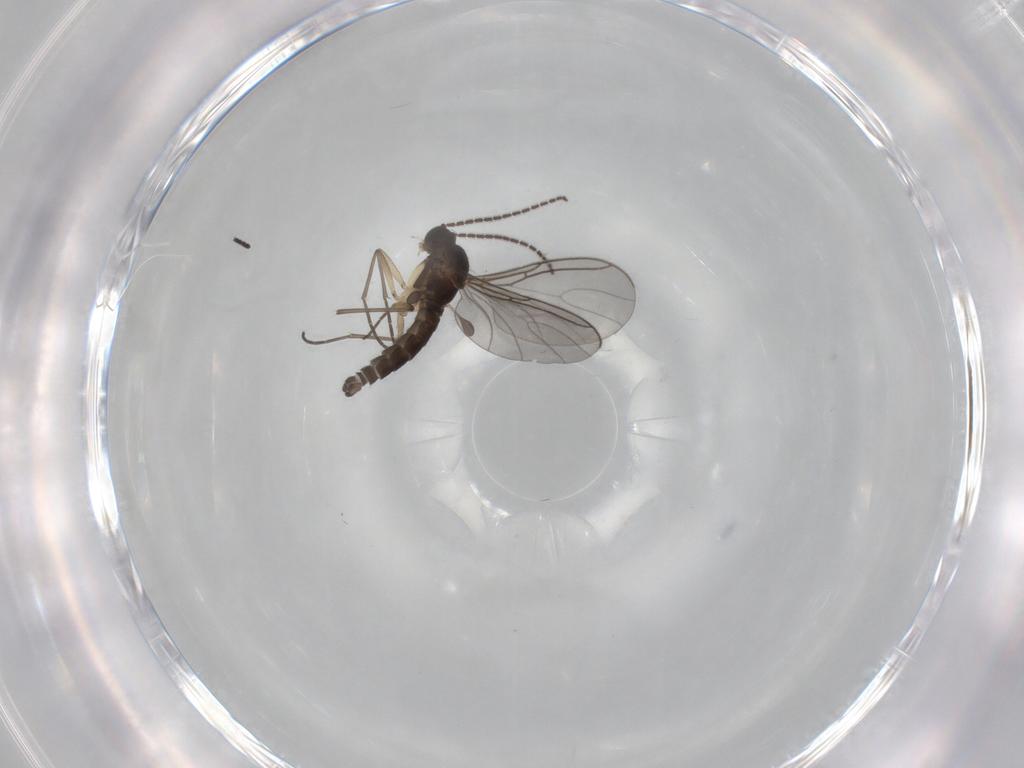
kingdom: Animalia
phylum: Arthropoda
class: Insecta
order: Diptera
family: Sciaridae
